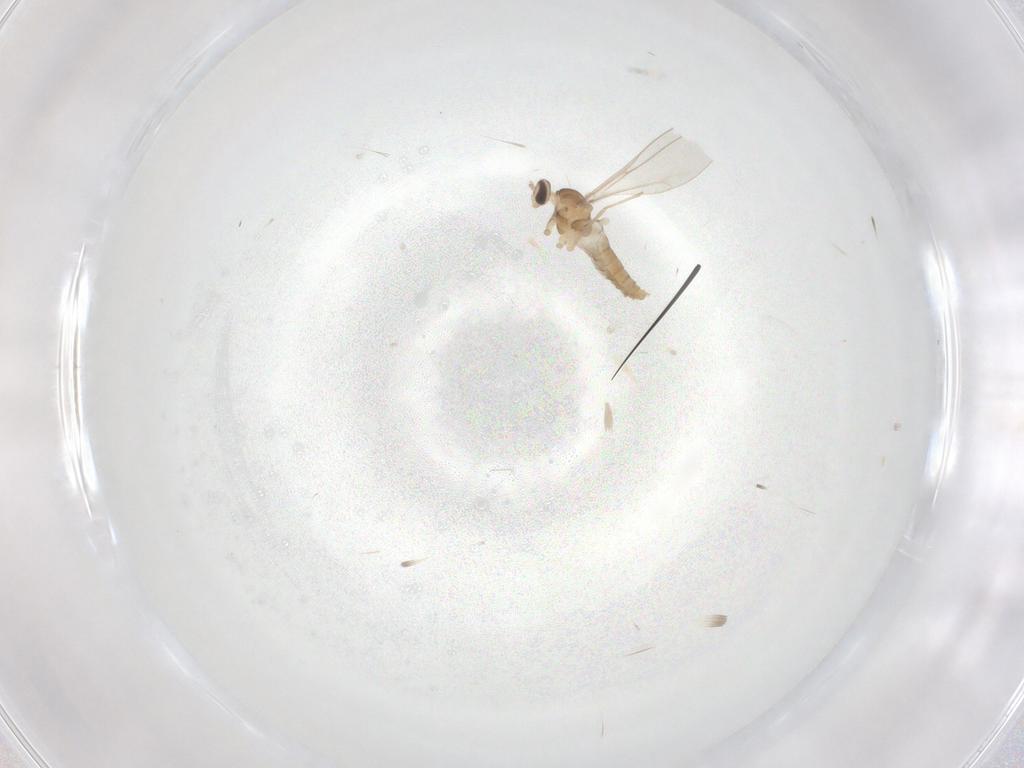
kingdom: Animalia
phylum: Arthropoda
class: Insecta
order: Diptera
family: Cecidomyiidae
